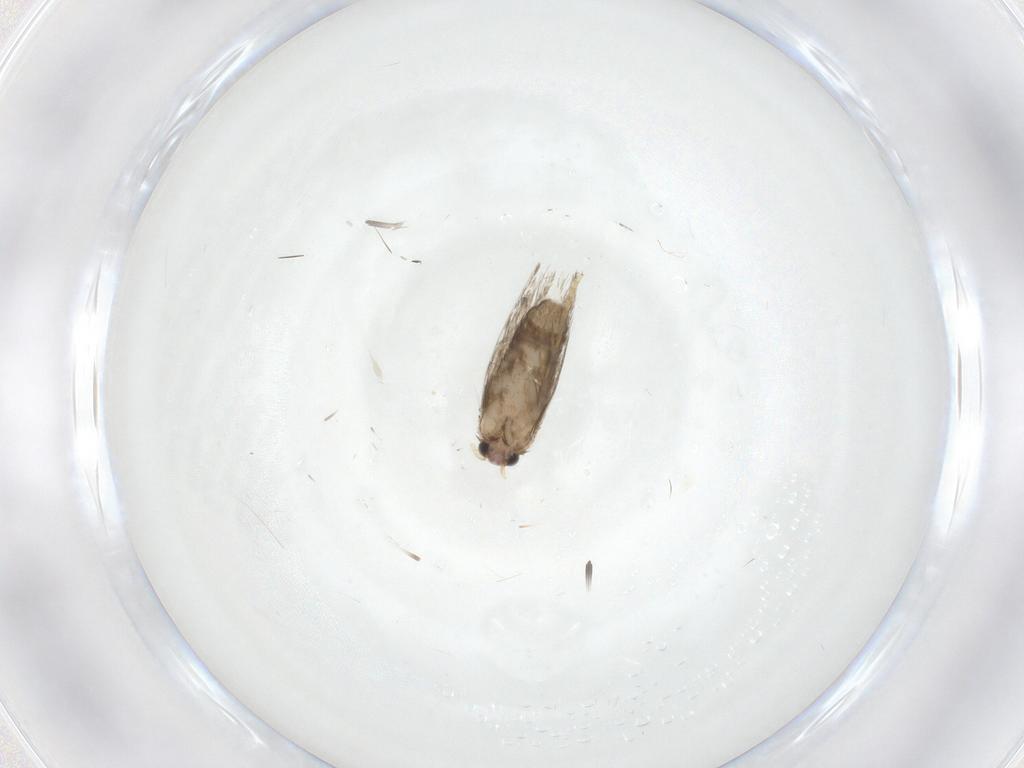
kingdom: Animalia
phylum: Arthropoda
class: Insecta
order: Lepidoptera
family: Nepticulidae
